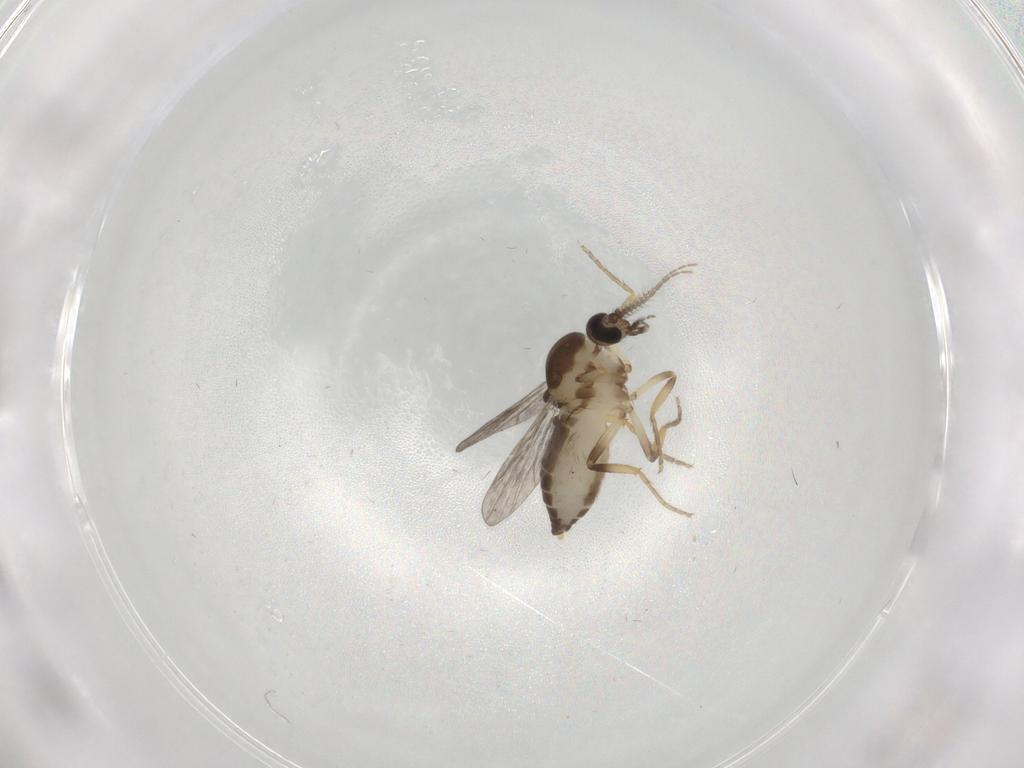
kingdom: Animalia
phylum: Arthropoda
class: Insecta
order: Diptera
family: Ceratopogonidae
